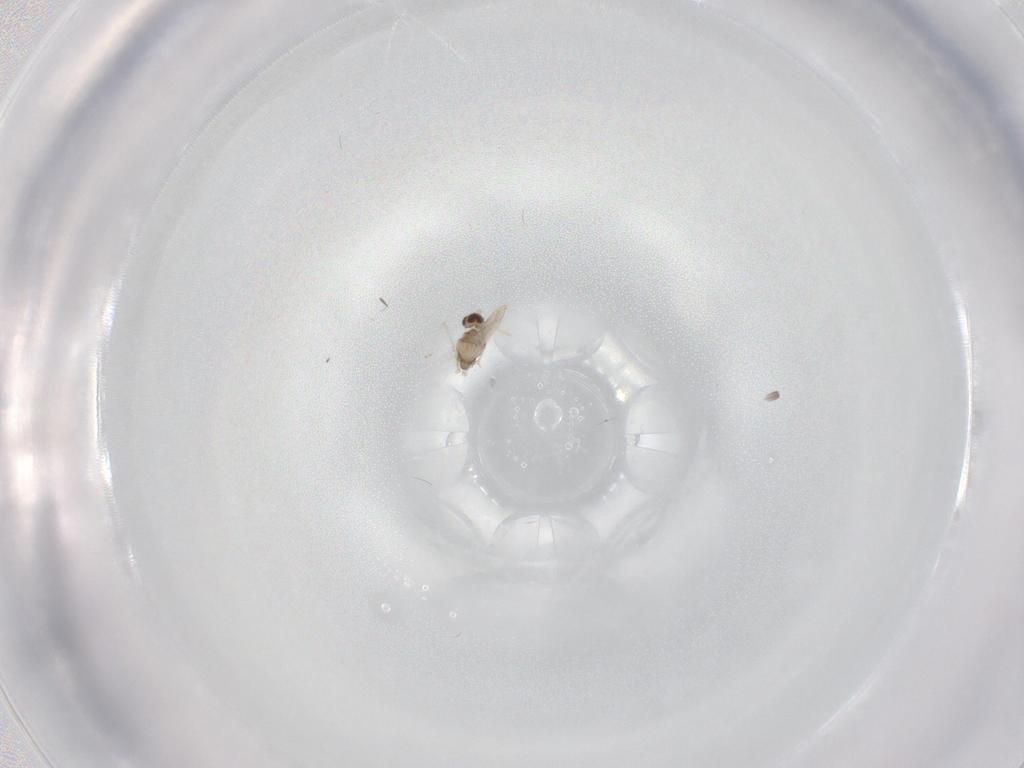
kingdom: Animalia
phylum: Arthropoda
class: Insecta
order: Diptera
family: Cecidomyiidae
